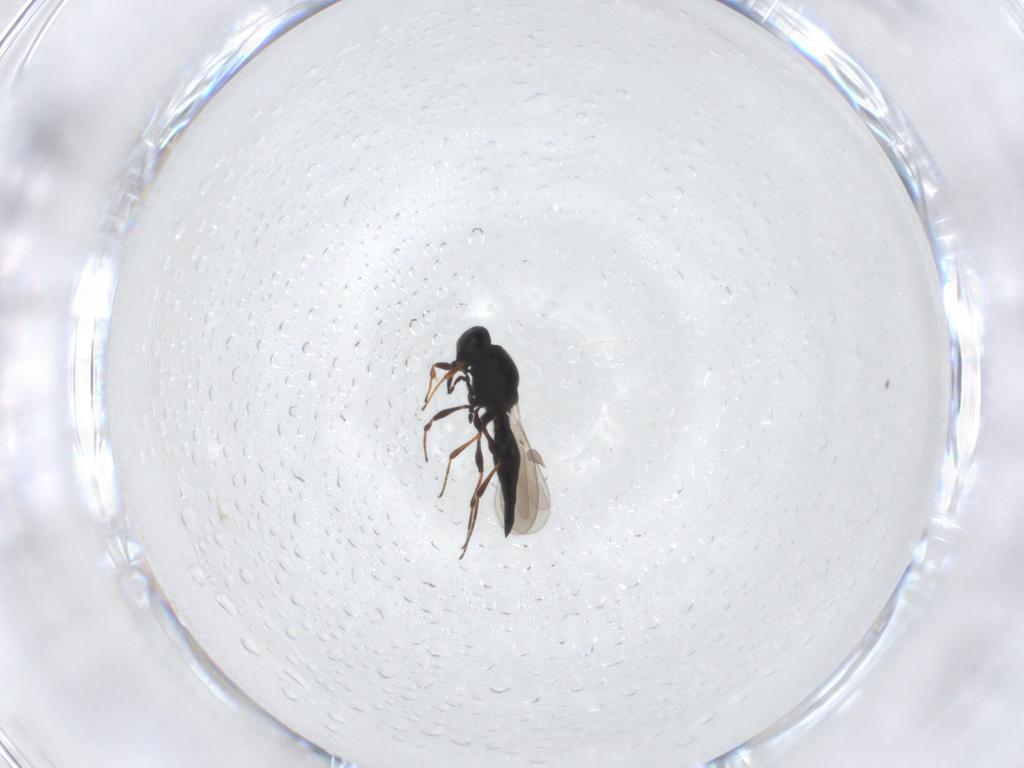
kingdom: Animalia
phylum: Arthropoda
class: Insecta
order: Hymenoptera
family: Platygastridae
